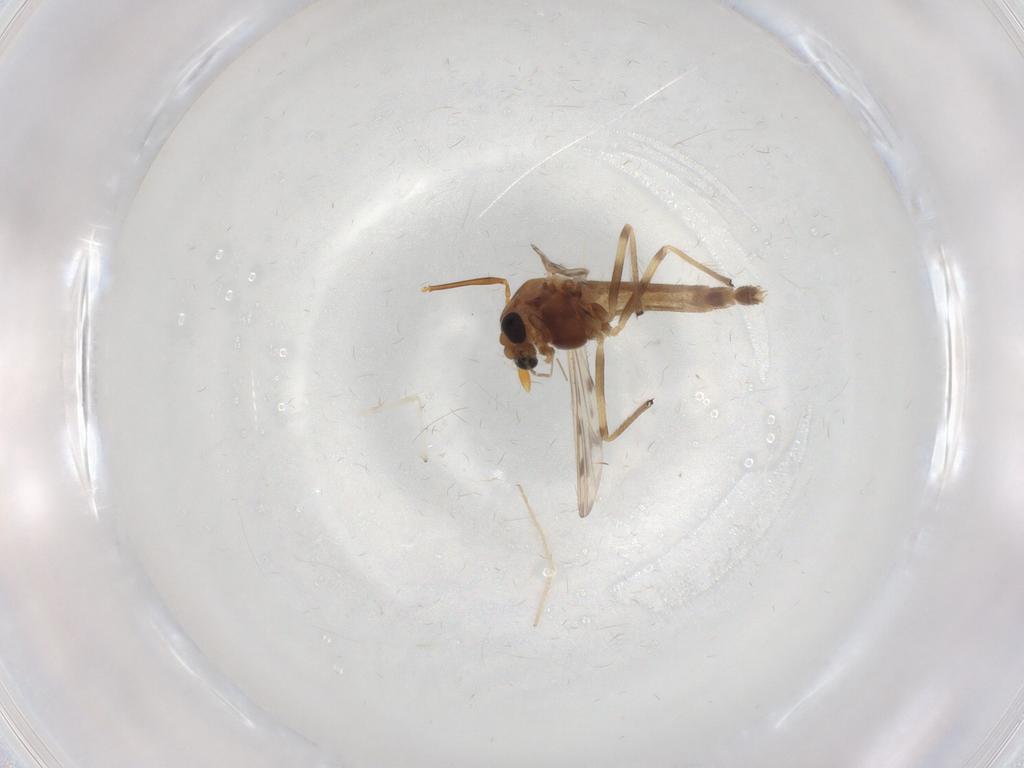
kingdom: Animalia
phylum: Arthropoda
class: Insecta
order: Diptera
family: Chironomidae
